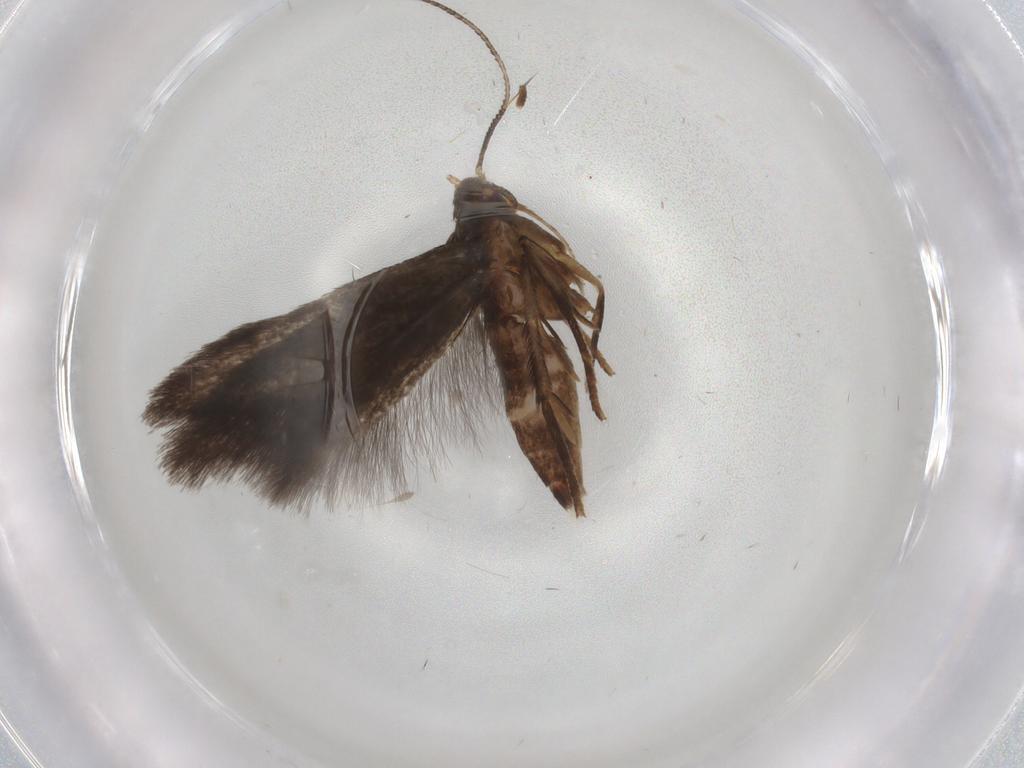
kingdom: Animalia
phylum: Arthropoda
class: Insecta
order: Lepidoptera
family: Cosmopterigidae
